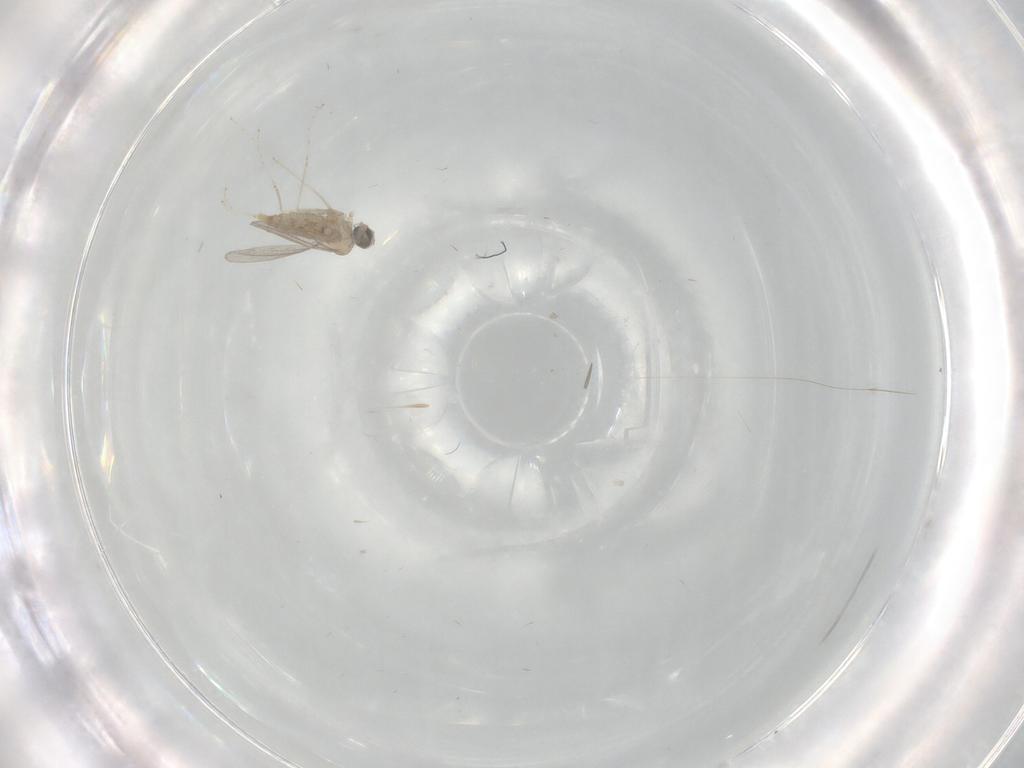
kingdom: Animalia
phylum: Arthropoda
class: Insecta
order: Diptera
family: Cecidomyiidae
